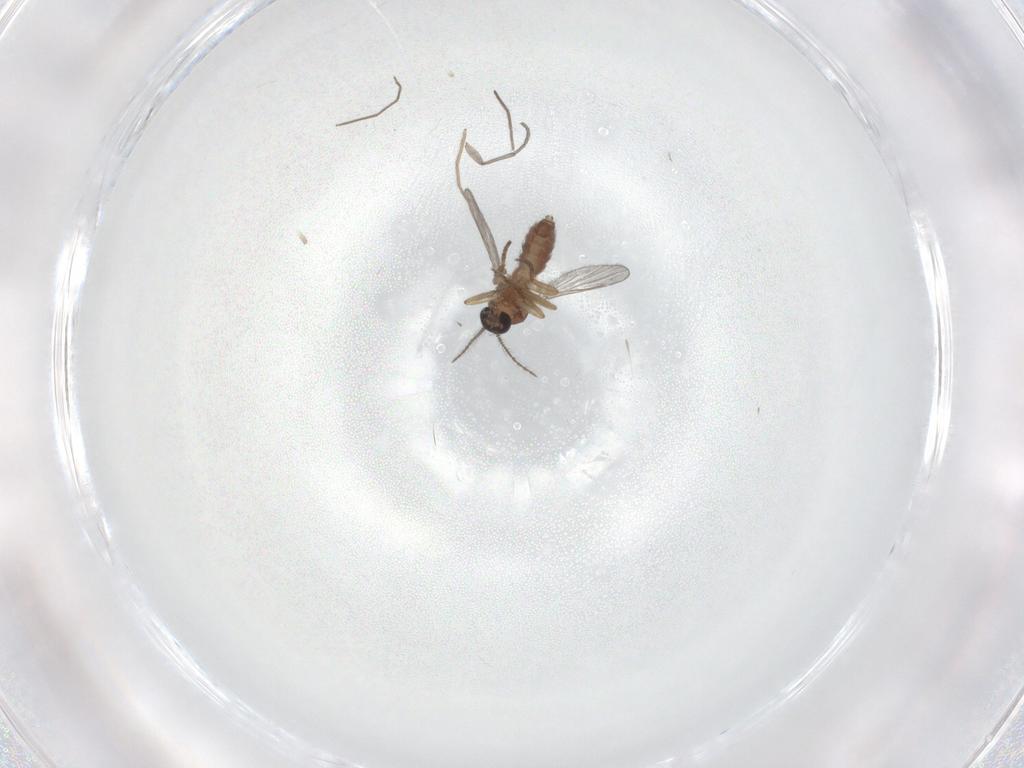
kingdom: Animalia
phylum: Arthropoda
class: Insecta
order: Diptera
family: Sciaridae
